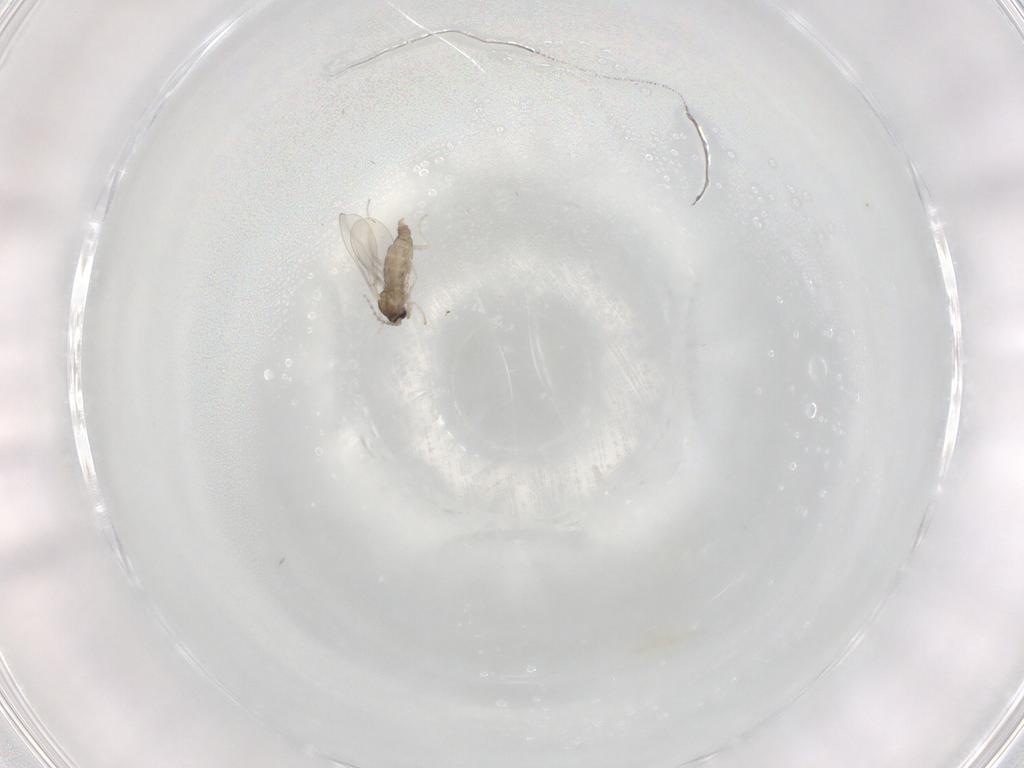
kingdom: Animalia
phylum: Arthropoda
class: Insecta
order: Diptera
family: Cecidomyiidae
